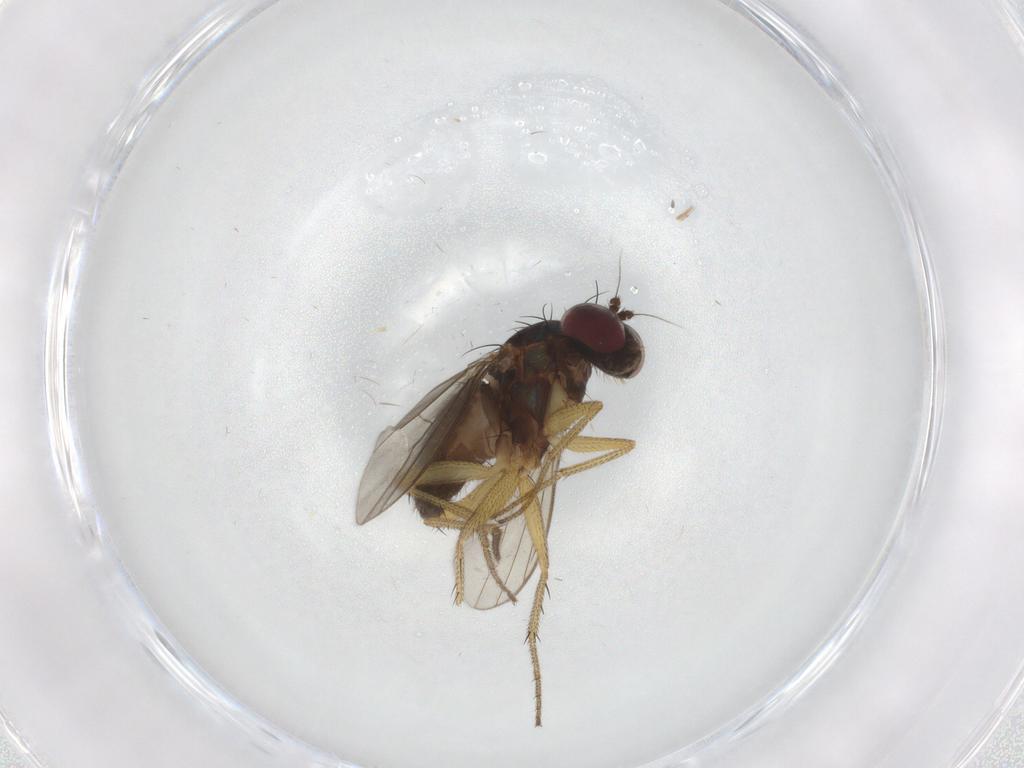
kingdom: Animalia
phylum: Arthropoda
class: Insecta
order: Diptera
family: Dolichopodidae
